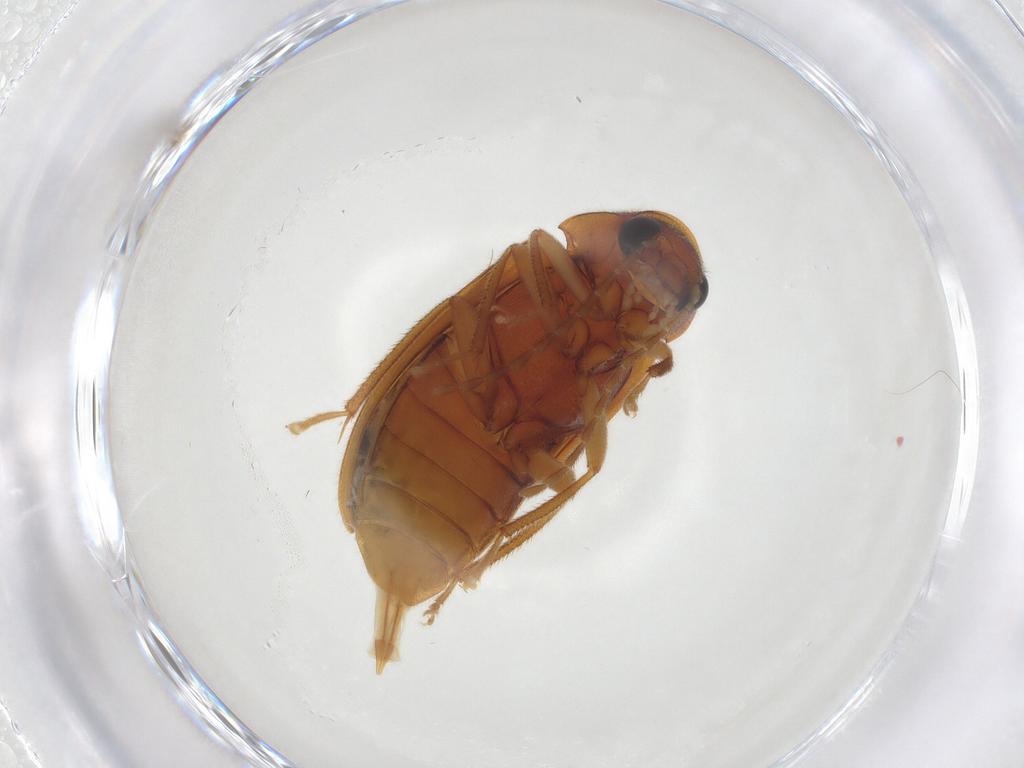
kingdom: Animalia
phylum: Arthropoda
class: Insecta
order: Coleoptera
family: Ptilodactylidae
